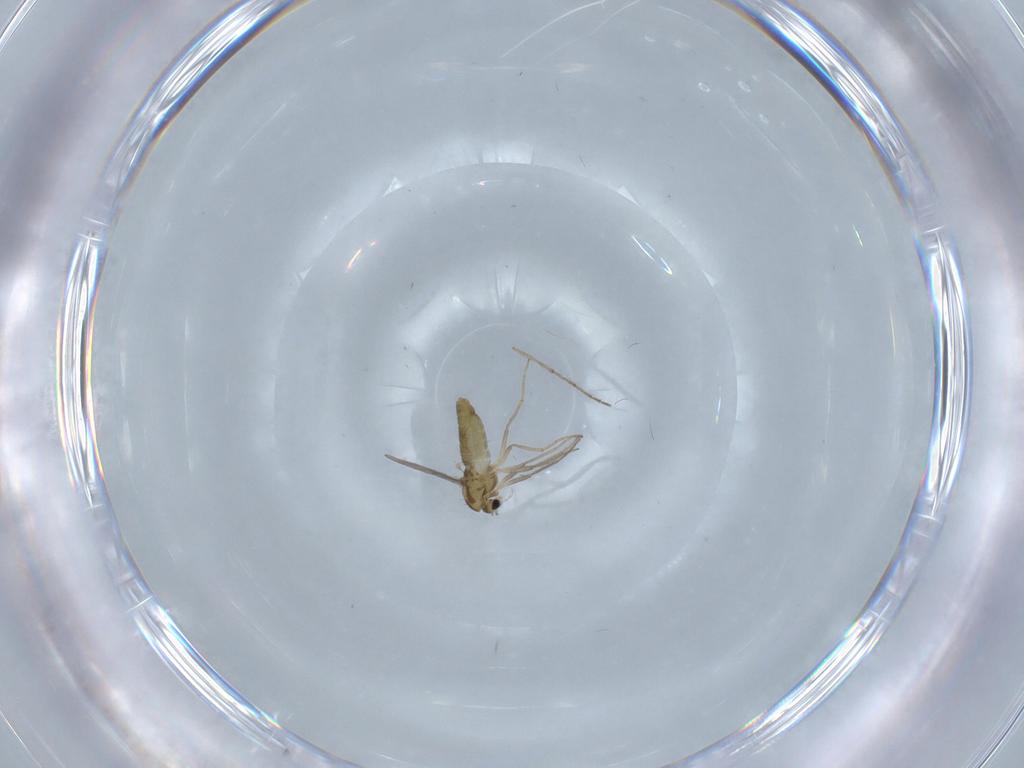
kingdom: Animalia
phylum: Arthropoda
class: Insecta
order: Diptera
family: Chironomidae
